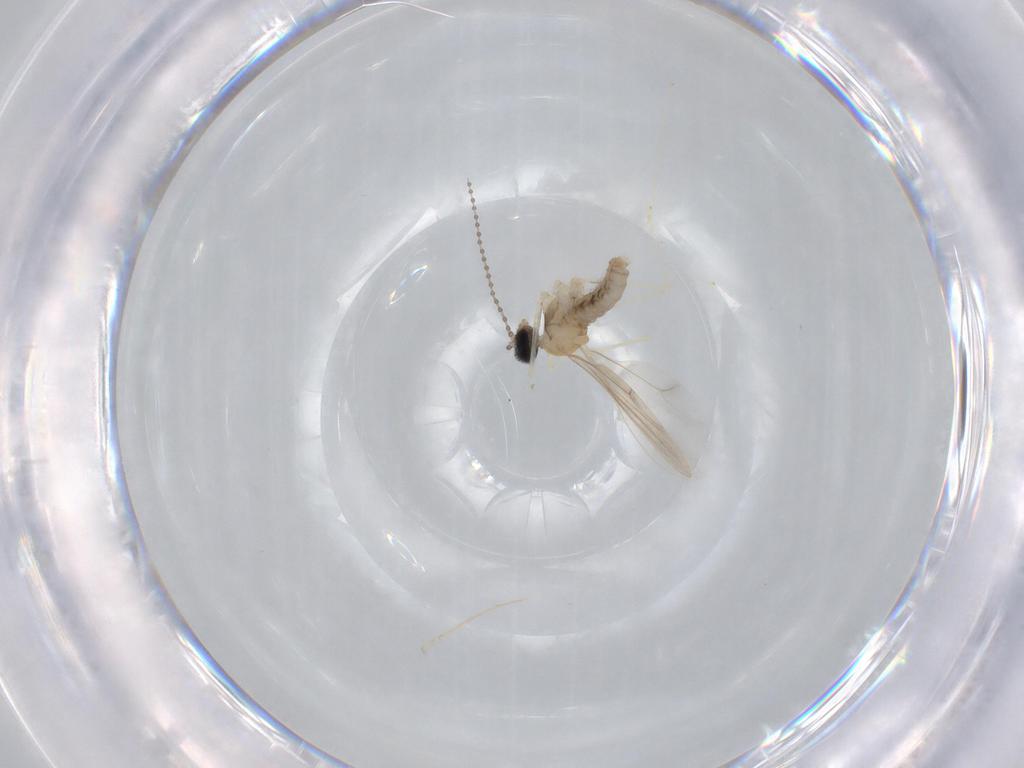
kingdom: Animalia
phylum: Arthropoda
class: Insecta
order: Diptera
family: Cecidomyiidae
